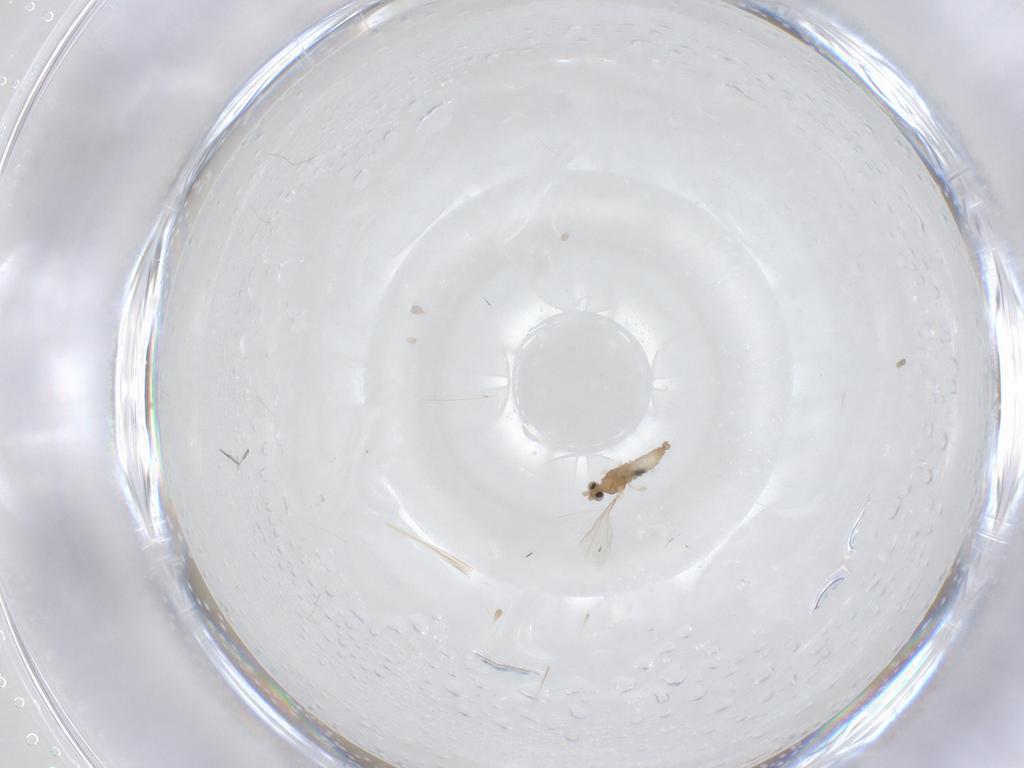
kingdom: Animalia
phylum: Arthropoda
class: Insecta
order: Diptera
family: Cecidomyiidae
